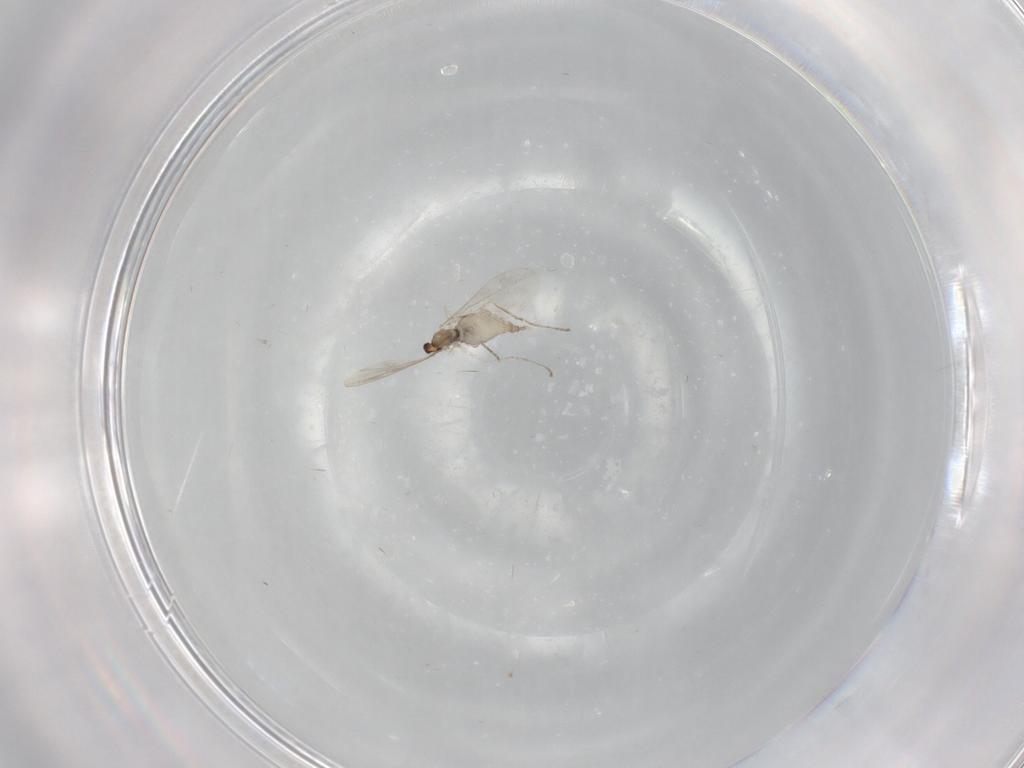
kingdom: Animalia
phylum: Arthropoda
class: Insecta
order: Diptera
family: Cecidomyiidae
